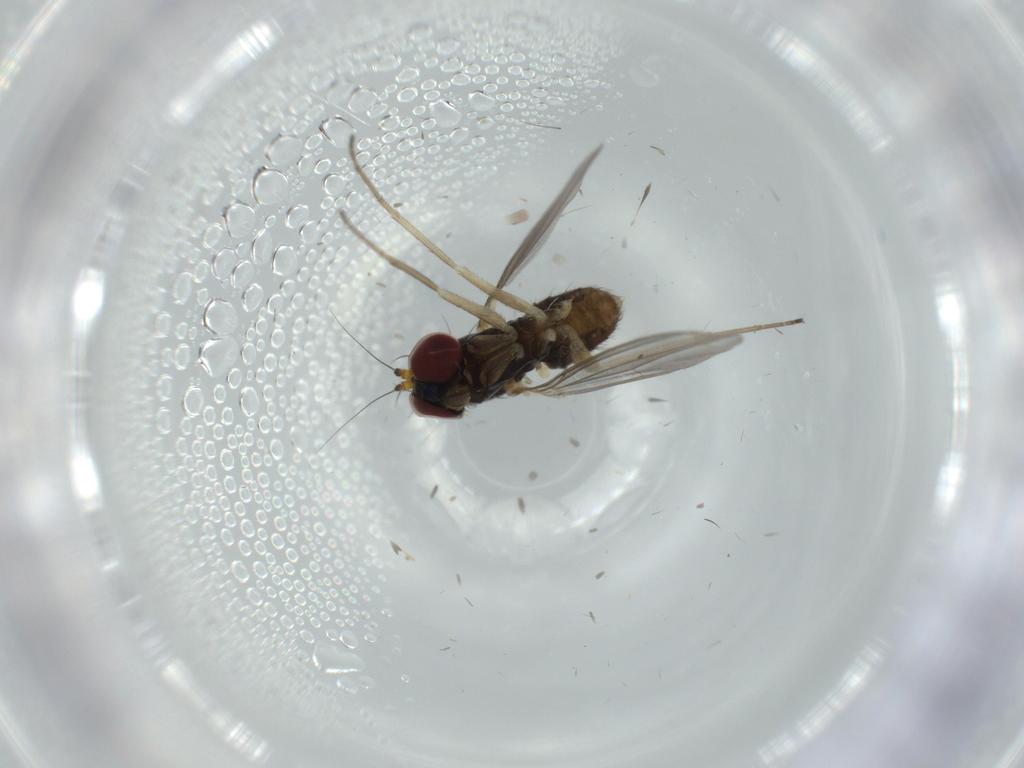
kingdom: Animalia
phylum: Arthropoda
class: Insecta
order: Diptera
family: Dolichopodidae
